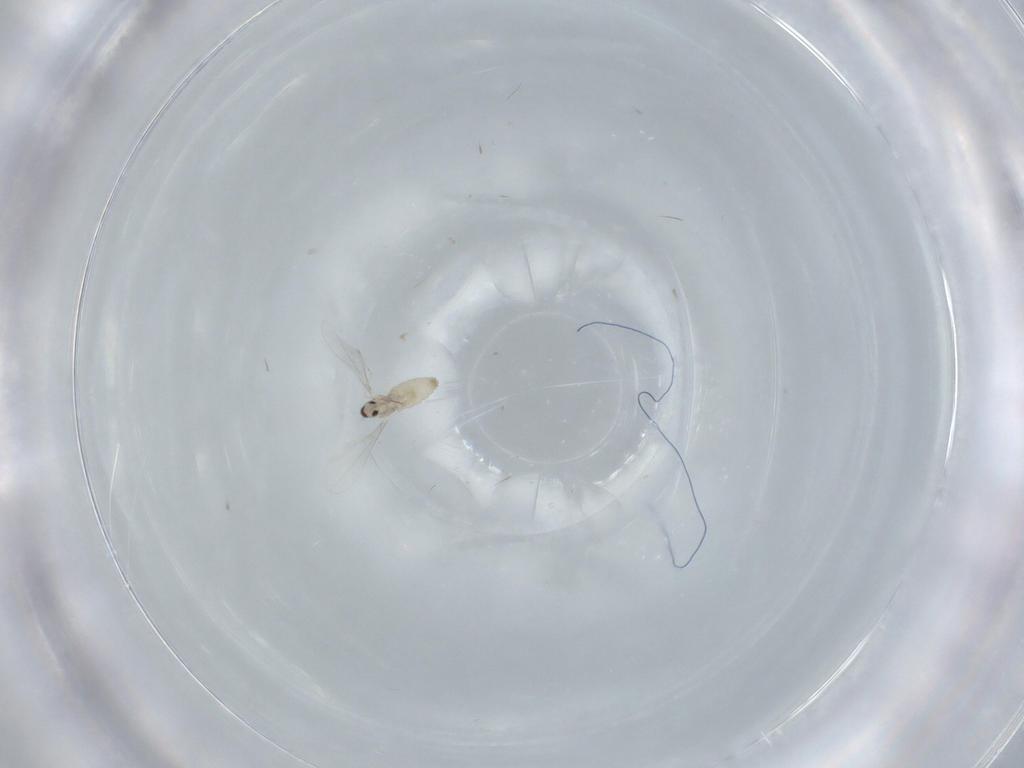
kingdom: Animalia
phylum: Arthropoda
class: Insecta
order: Diptera
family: Cecidomyiidae
